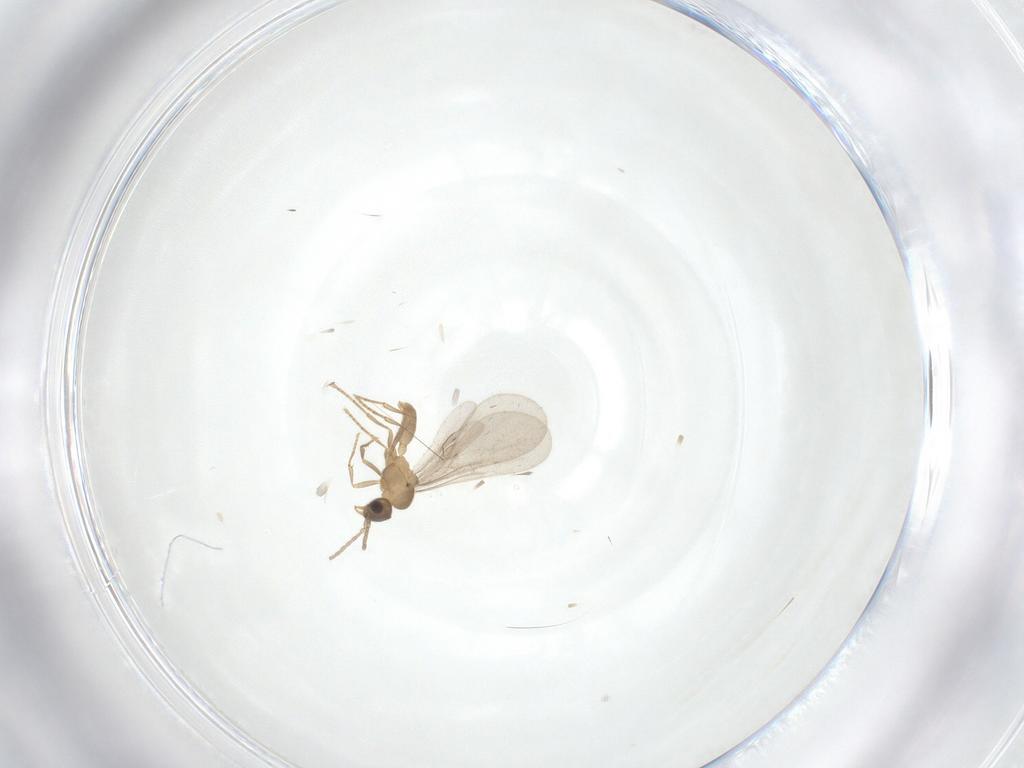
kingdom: Animalia
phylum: Arthropoda
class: Insecta
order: Hymenoptera
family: Formicidae
